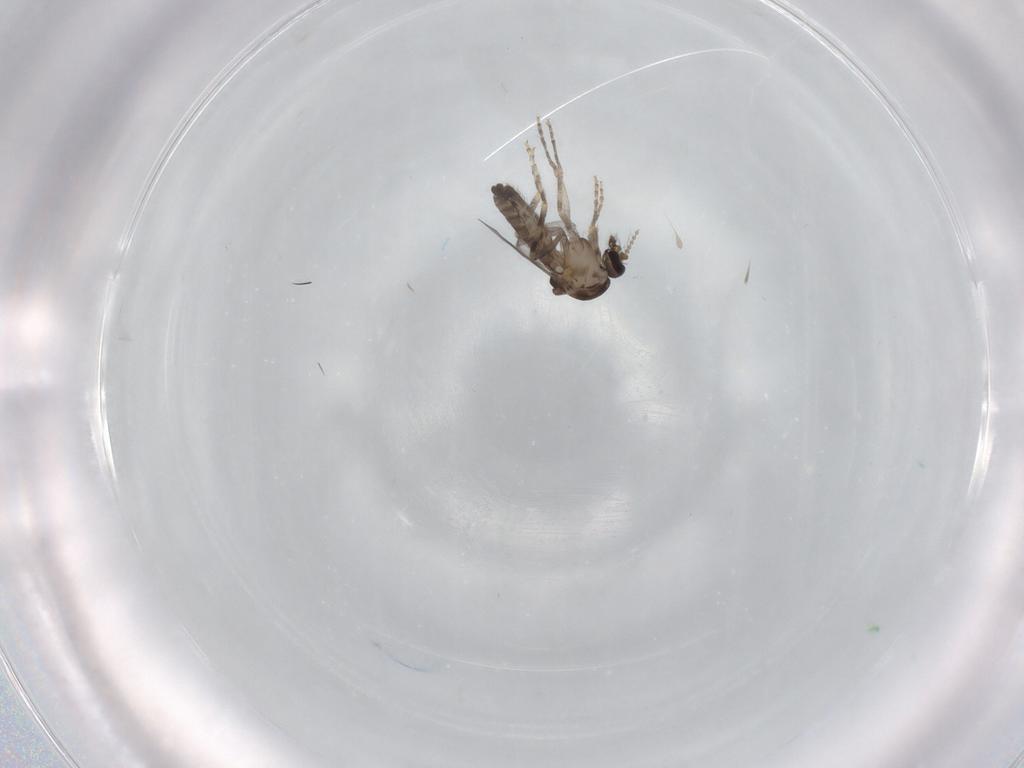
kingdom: Animalia
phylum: Arthropoda
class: Insecta
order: Diptera
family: Ceratopogonidae
